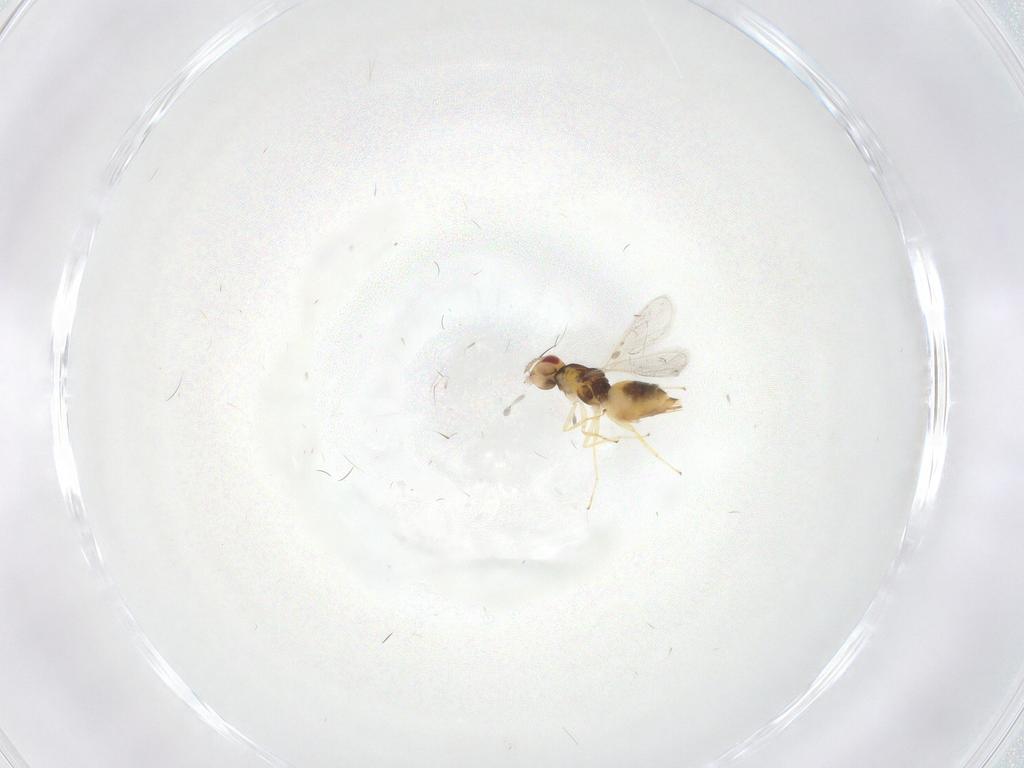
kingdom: Animalia
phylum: Arthropoda
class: Insecta
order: Hymenoptera
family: Eulophidae
